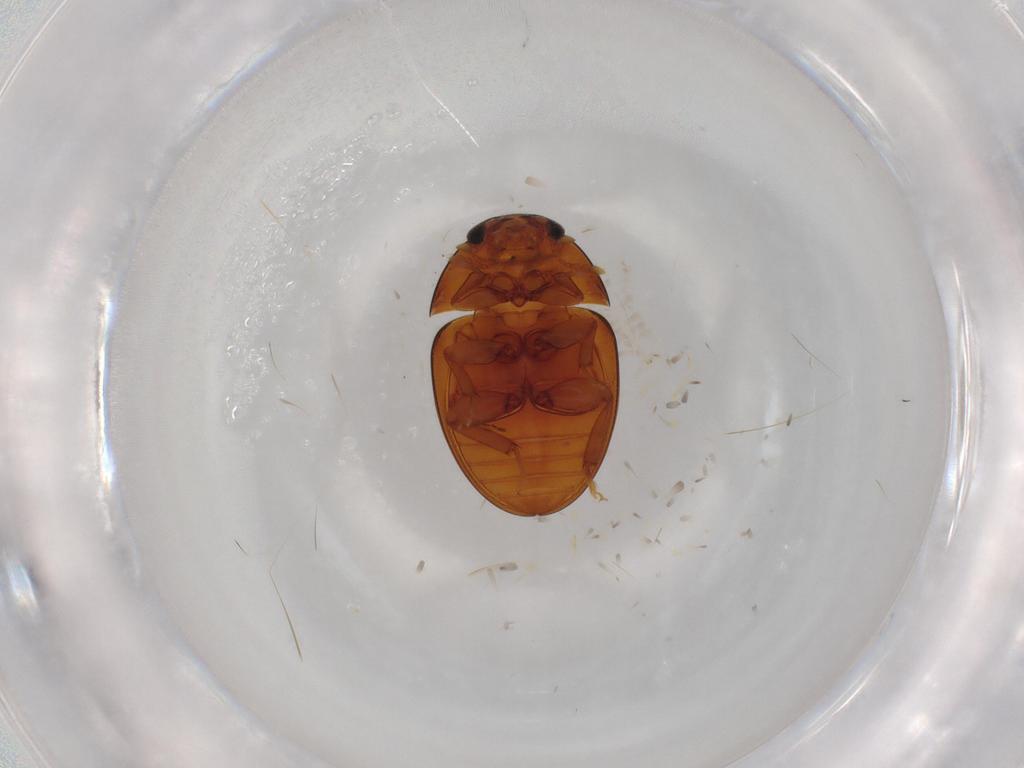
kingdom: Animalia
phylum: Arthropoda
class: Insecta
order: Coleoptera
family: Phalacridae
